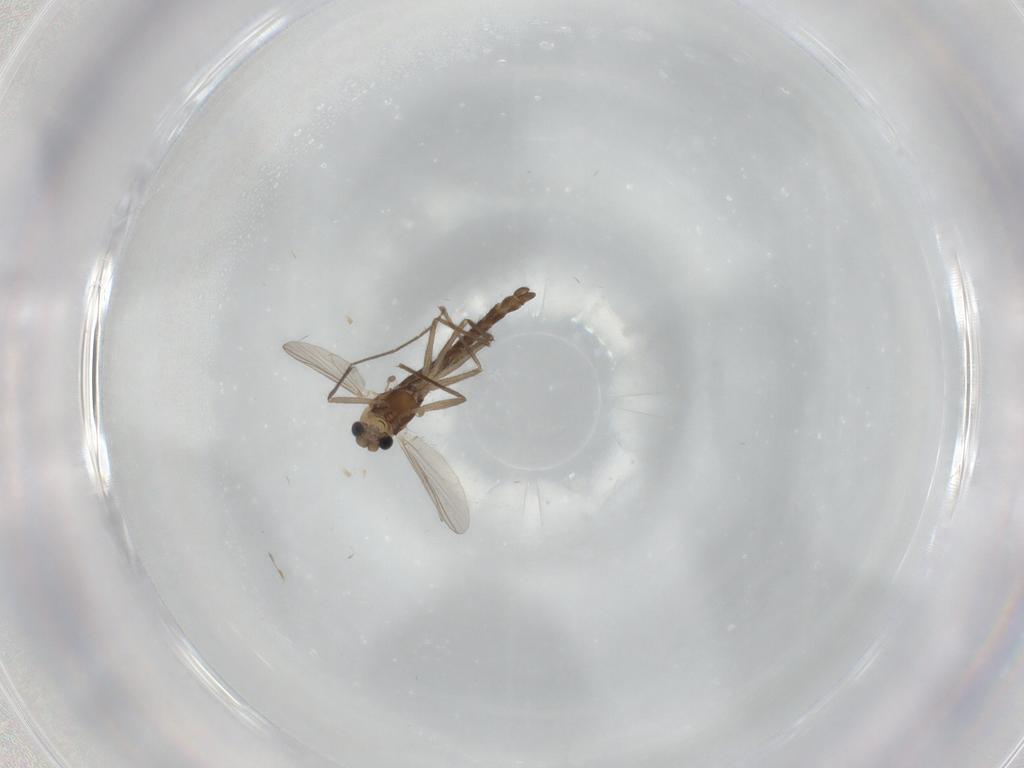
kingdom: Animalia
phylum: Arthropoda
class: Insecta
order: Diptera
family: Chironomidae
